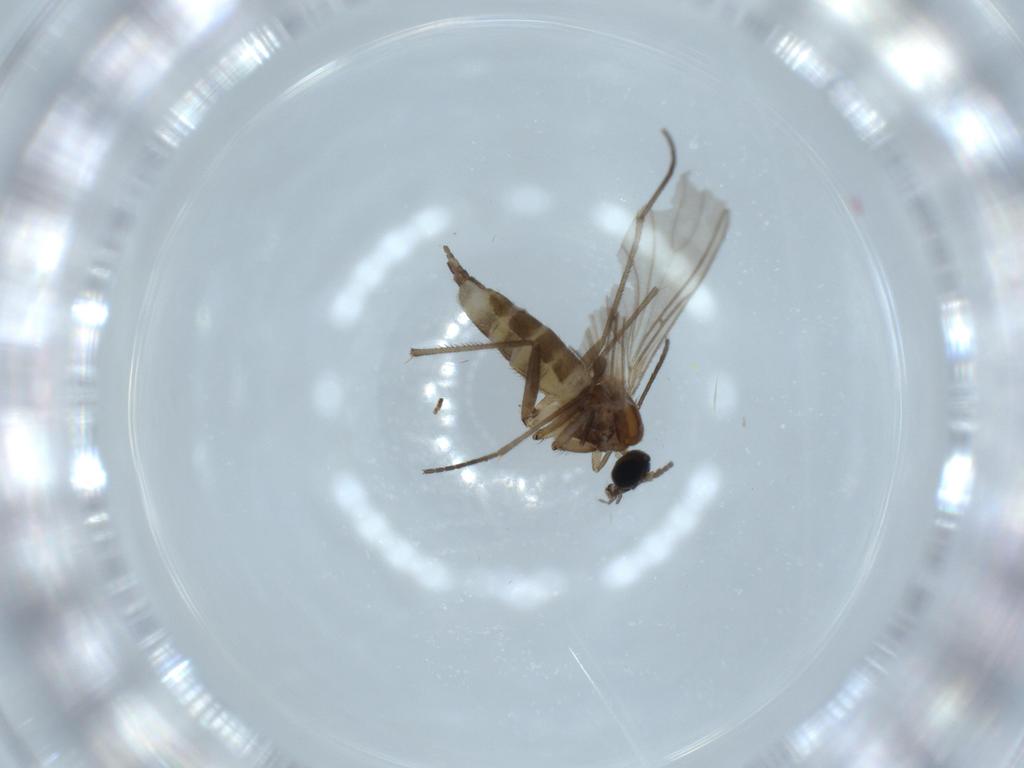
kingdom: Animalia
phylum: Arthropoda
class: Insecta
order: Diptera
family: Sciaridae
